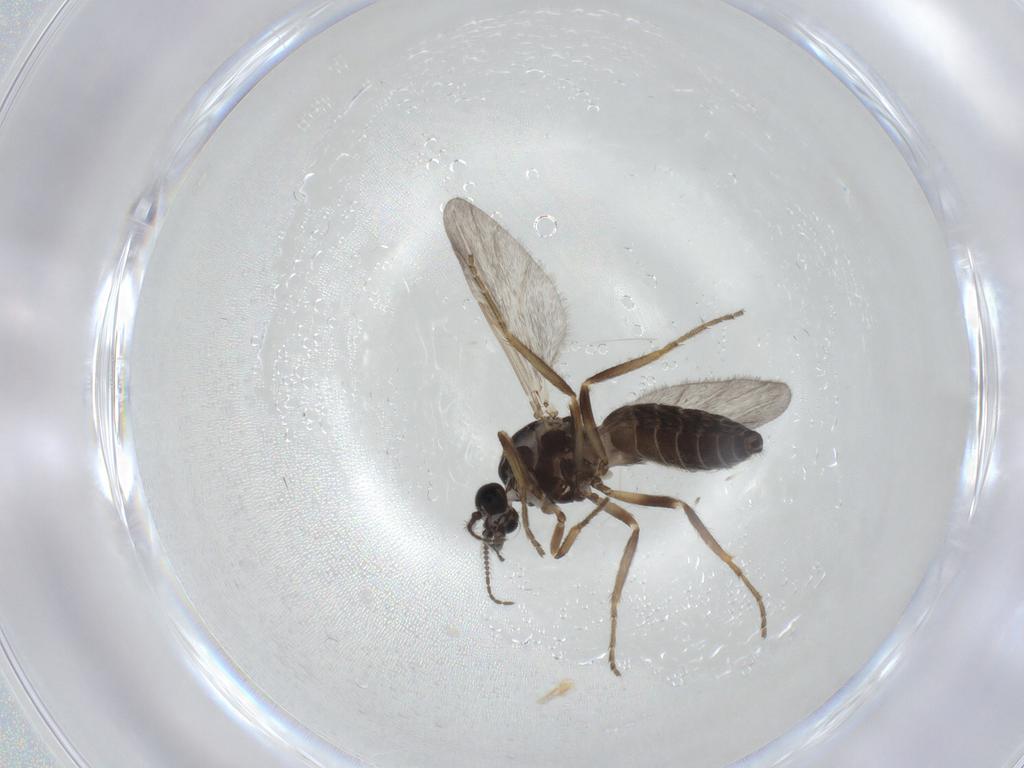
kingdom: Animalia
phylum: Arthropoda
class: Insecta
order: Diptera
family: Ceratopogonidae
